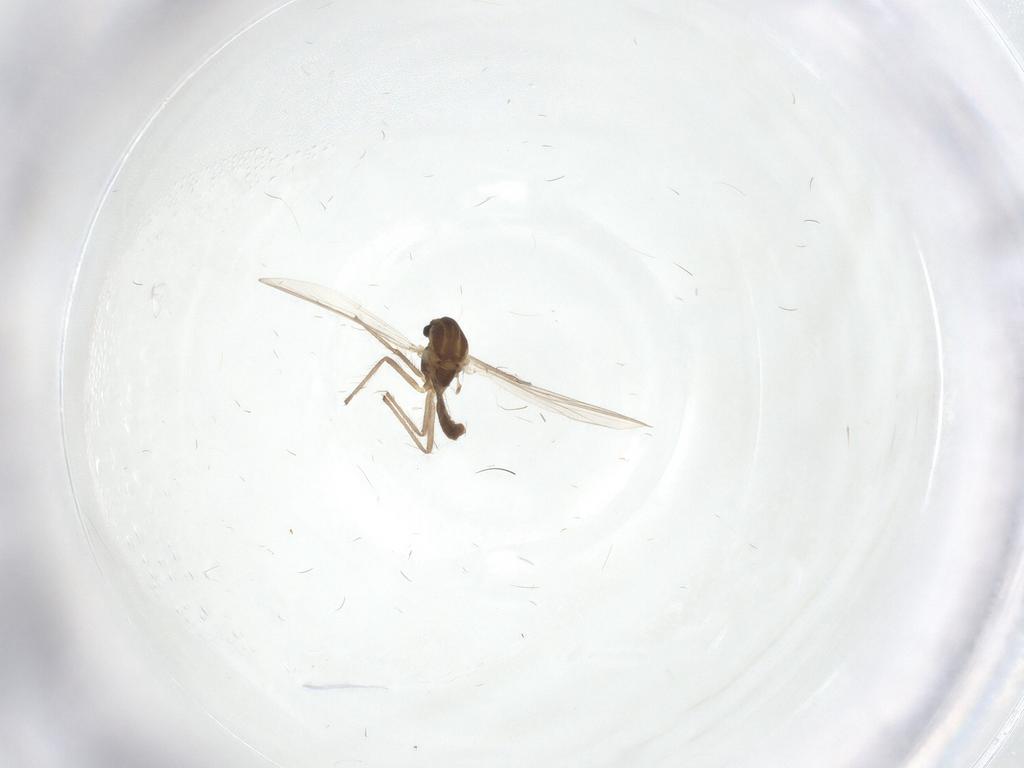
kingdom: Animalia
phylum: Arthropoda
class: Insecta
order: Diptera
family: Chironomidae
